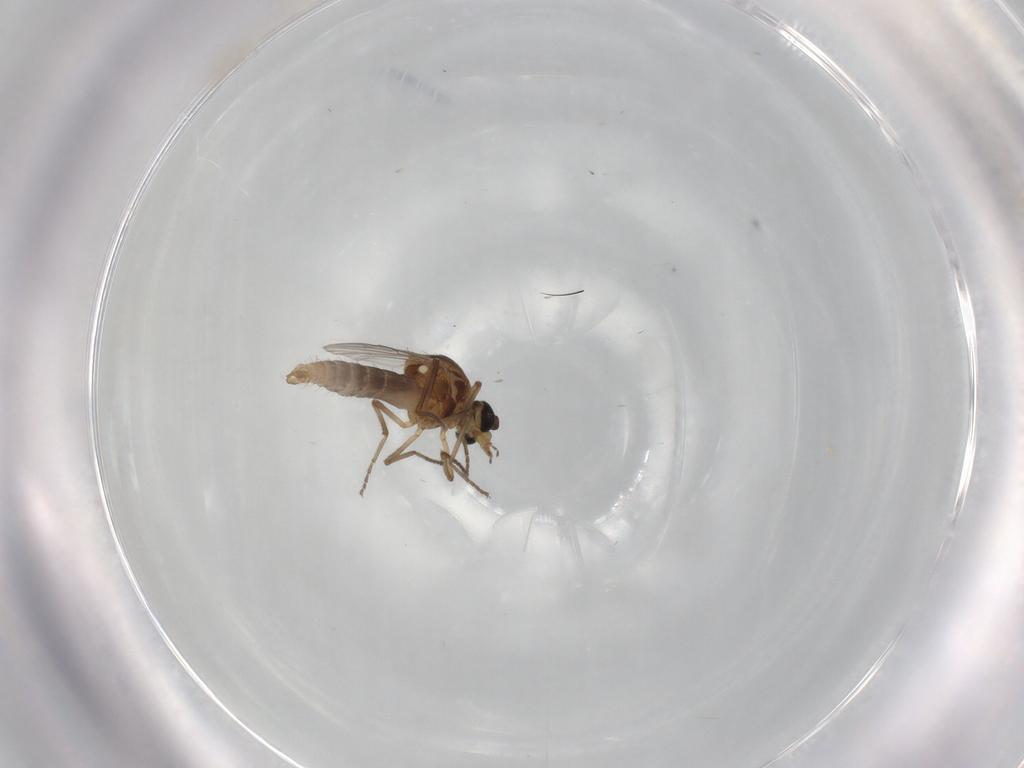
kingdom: Animalia
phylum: Arthropoda
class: Insecta
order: Diptera
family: Ceratopogonidae
